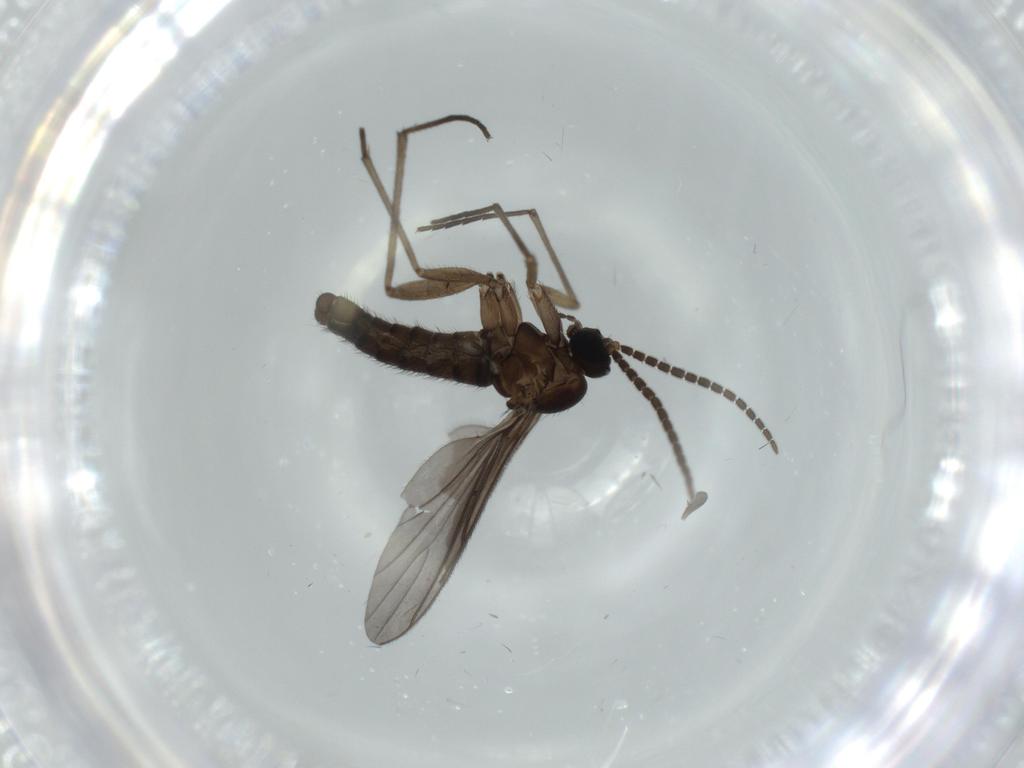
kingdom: Animalia
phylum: Arthropoda
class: Insecta
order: Diptera
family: Sciaridae
